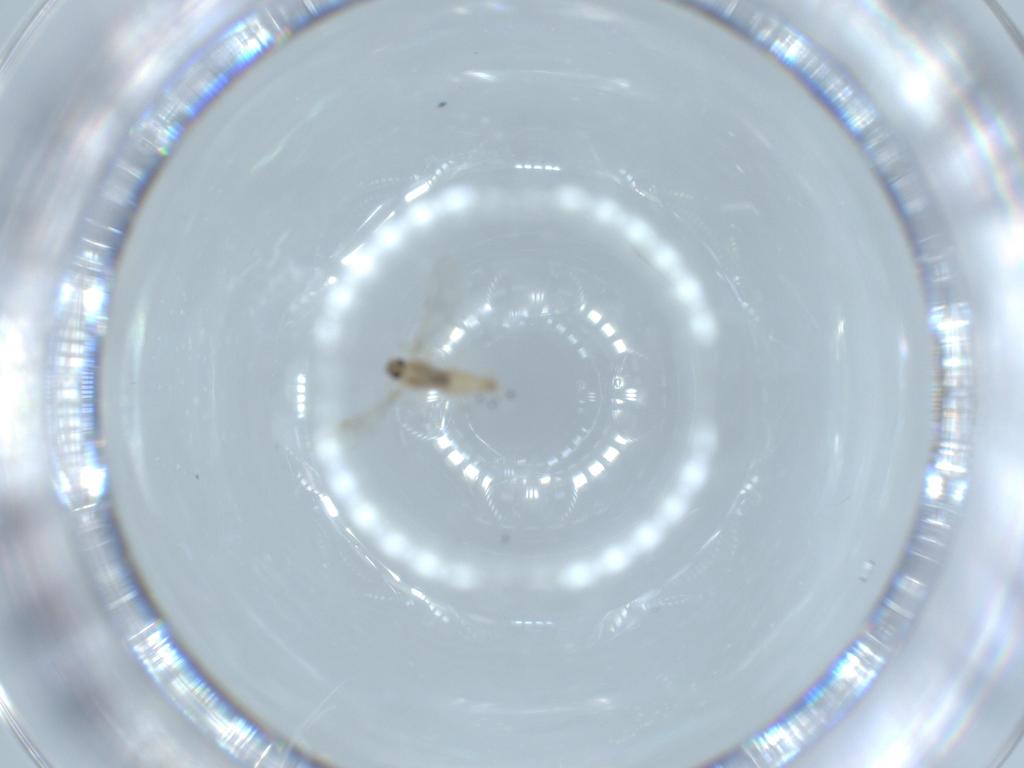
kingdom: Animalia
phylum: Arthropoda
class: Insecta
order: Diptera
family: Cecidomyiidae
